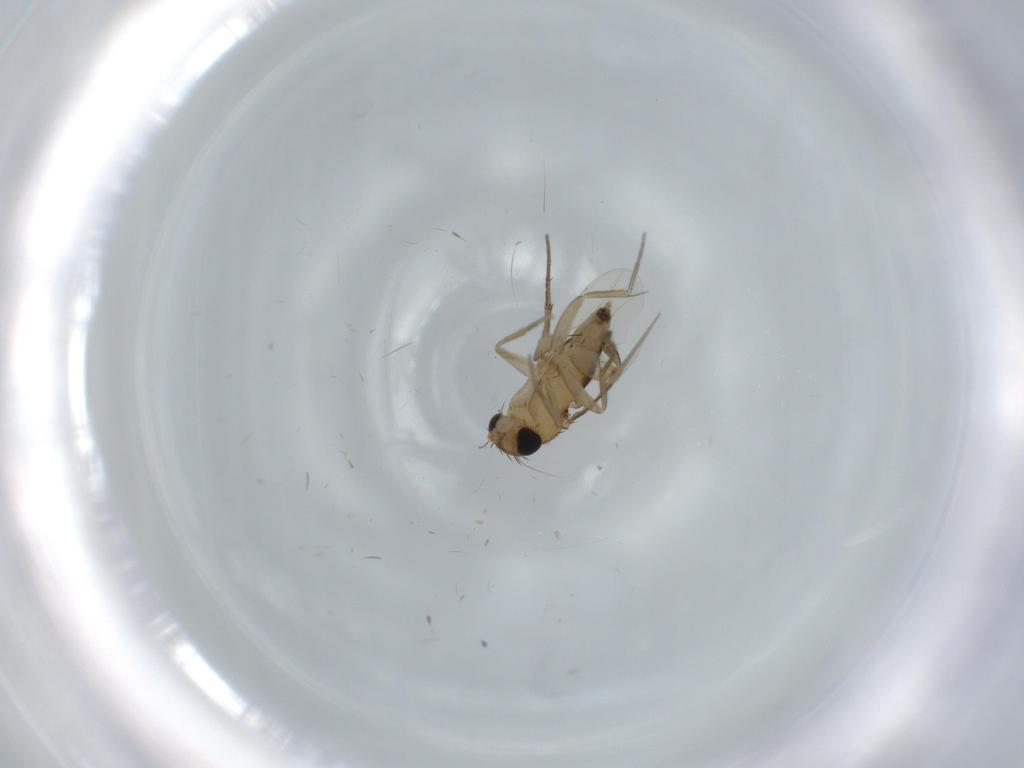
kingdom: Animalia
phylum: Arthropoda
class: Insecta
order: Diptera
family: Phoridae
